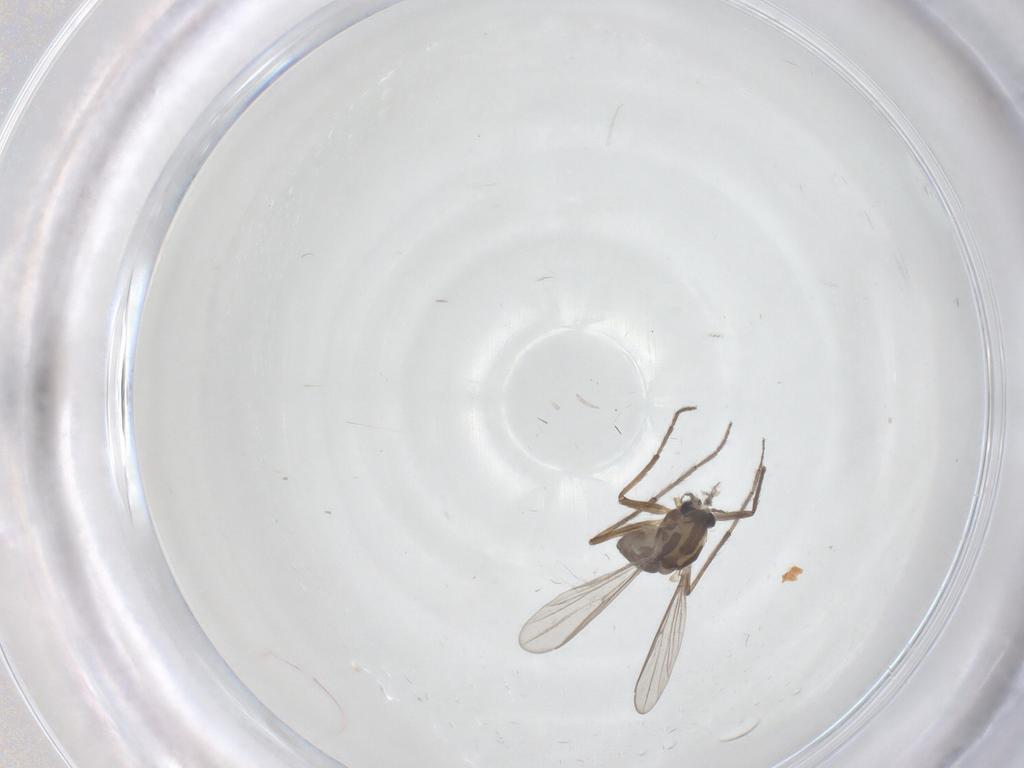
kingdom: Animalia
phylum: Arthropoda
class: Insecta
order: Diptera
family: Chironomidae
